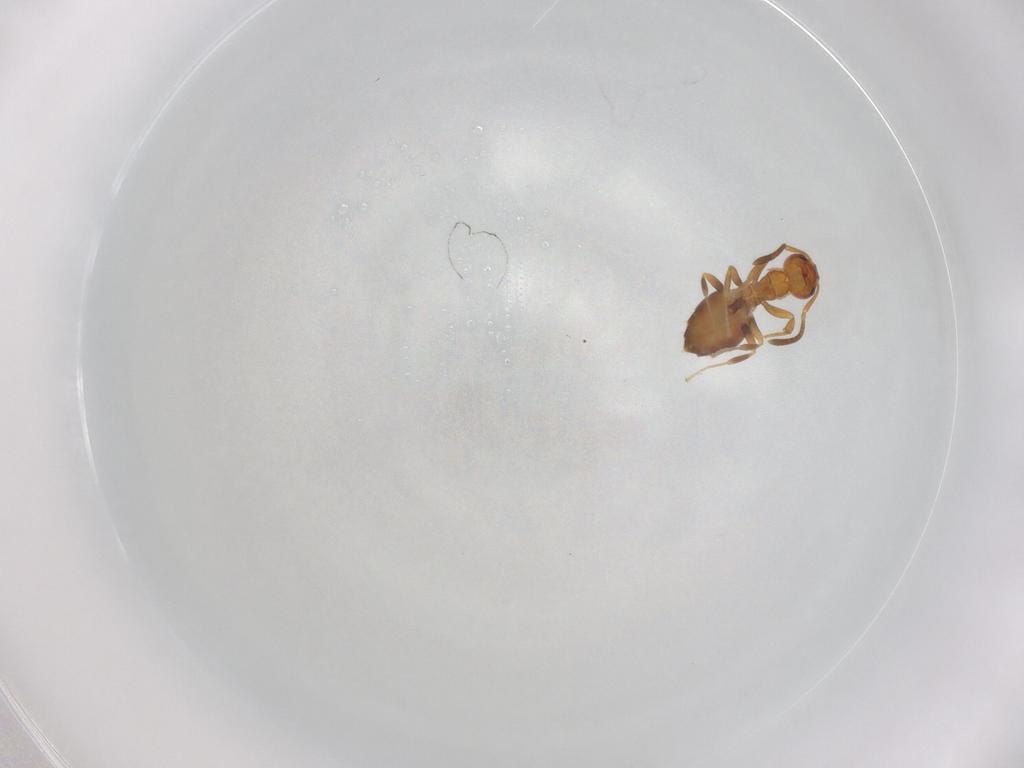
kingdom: Animalia
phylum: Arthropoda
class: Insecta
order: Hymenoptera
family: Formicidae
